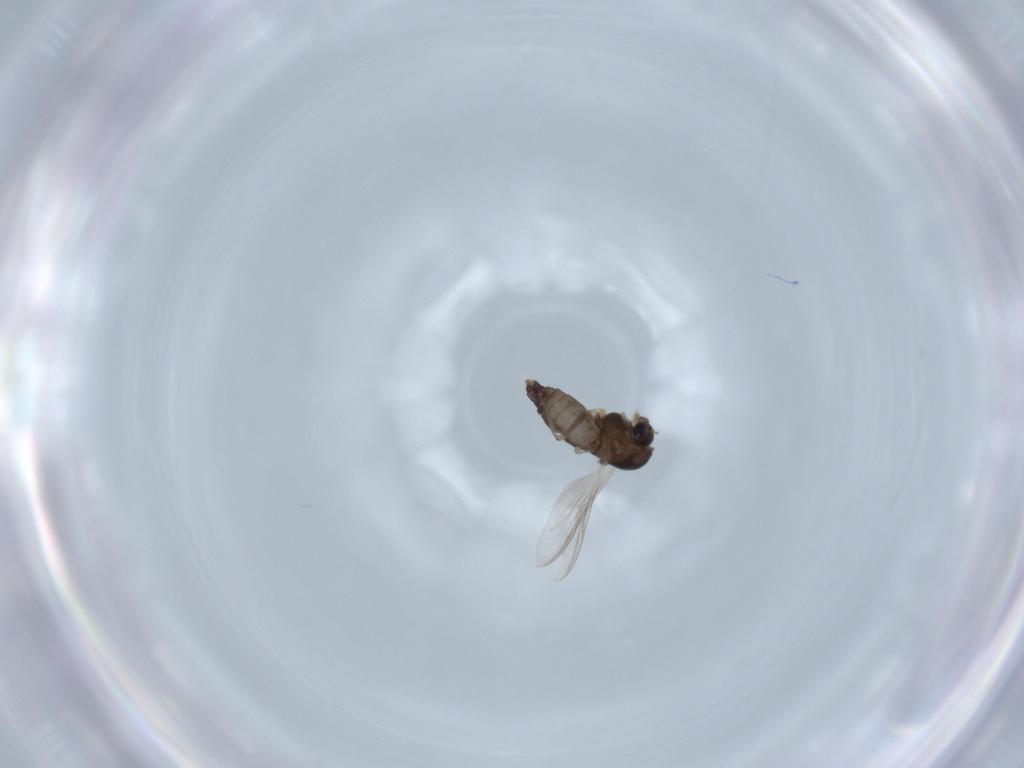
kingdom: Animalia
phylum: Arthropoda
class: Insecta
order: Diptera
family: Chironomidae
